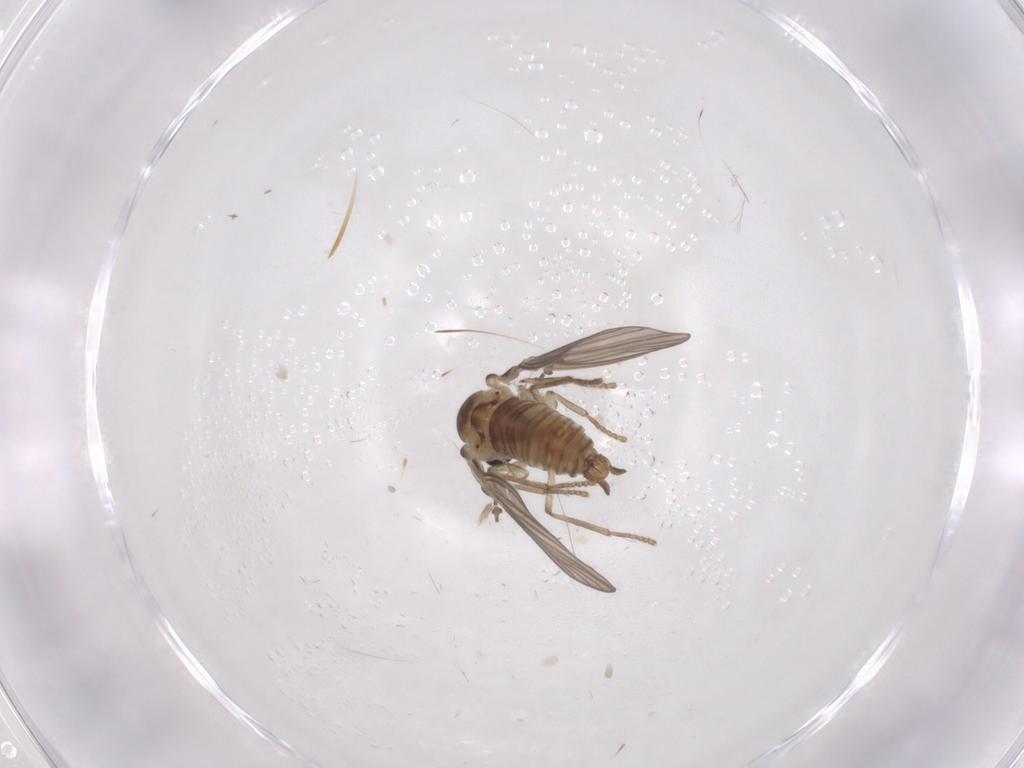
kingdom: Animalia
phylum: Arthropoda
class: Insecta
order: Diptera
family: Psychodidae
